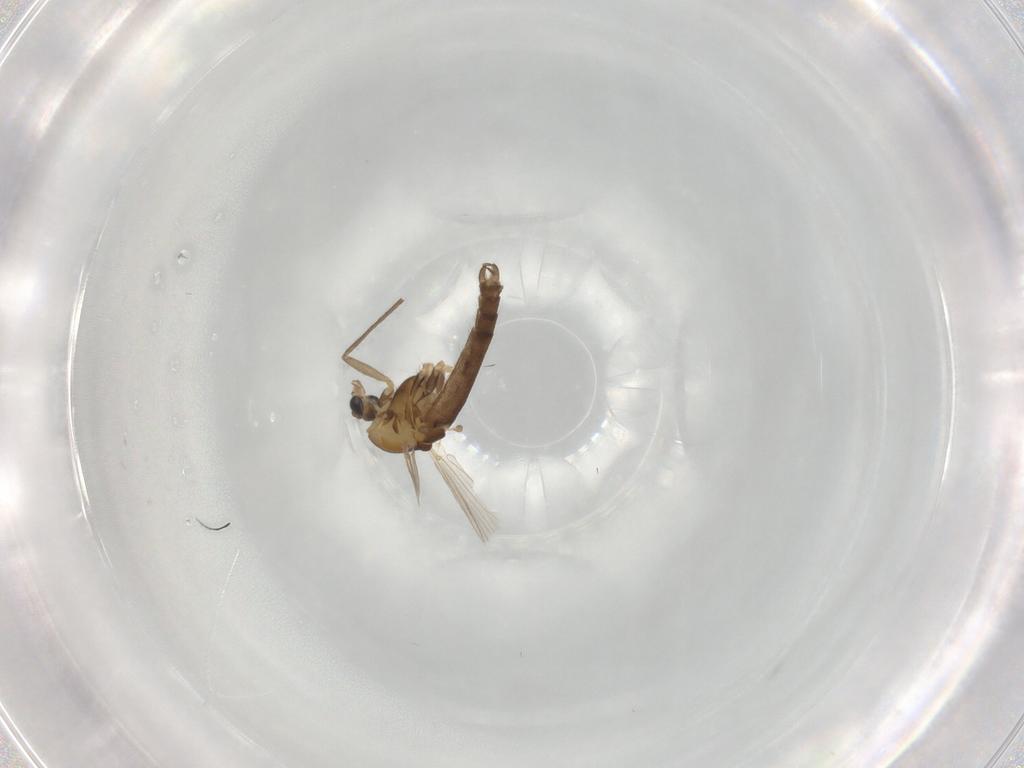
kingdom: Animalia
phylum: Arthropoda
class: Insecta
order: Diptera
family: Chironomidae
